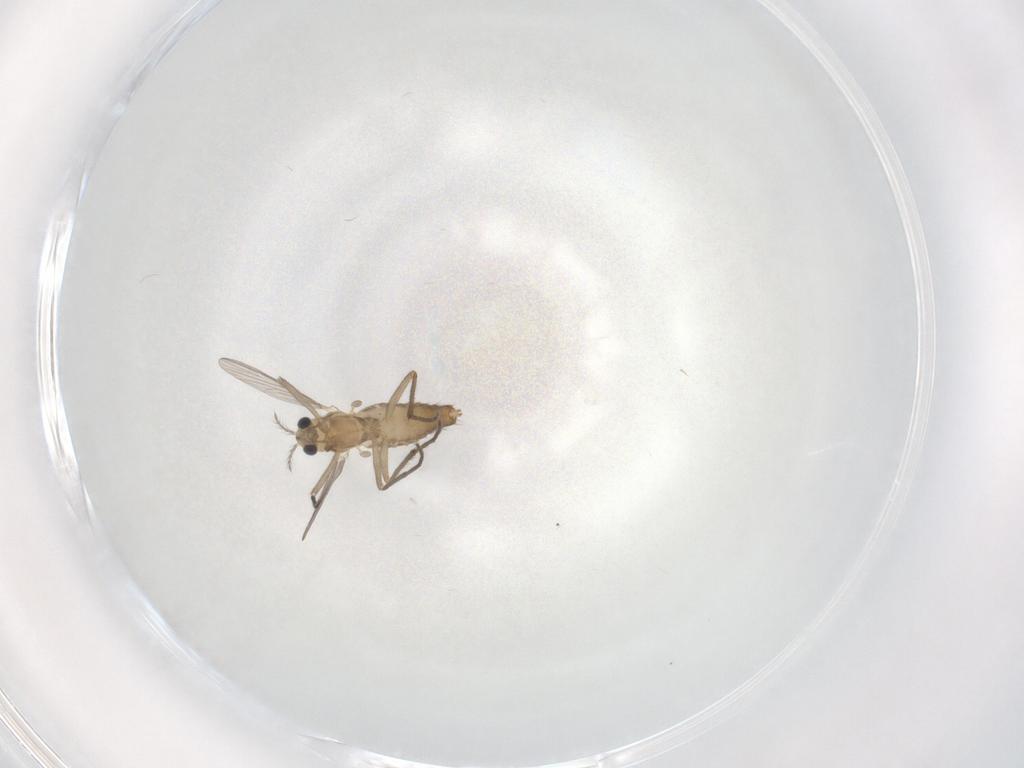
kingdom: Animalia
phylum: Arthropoda
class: Insecta
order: Diptera
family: Chironomidae
